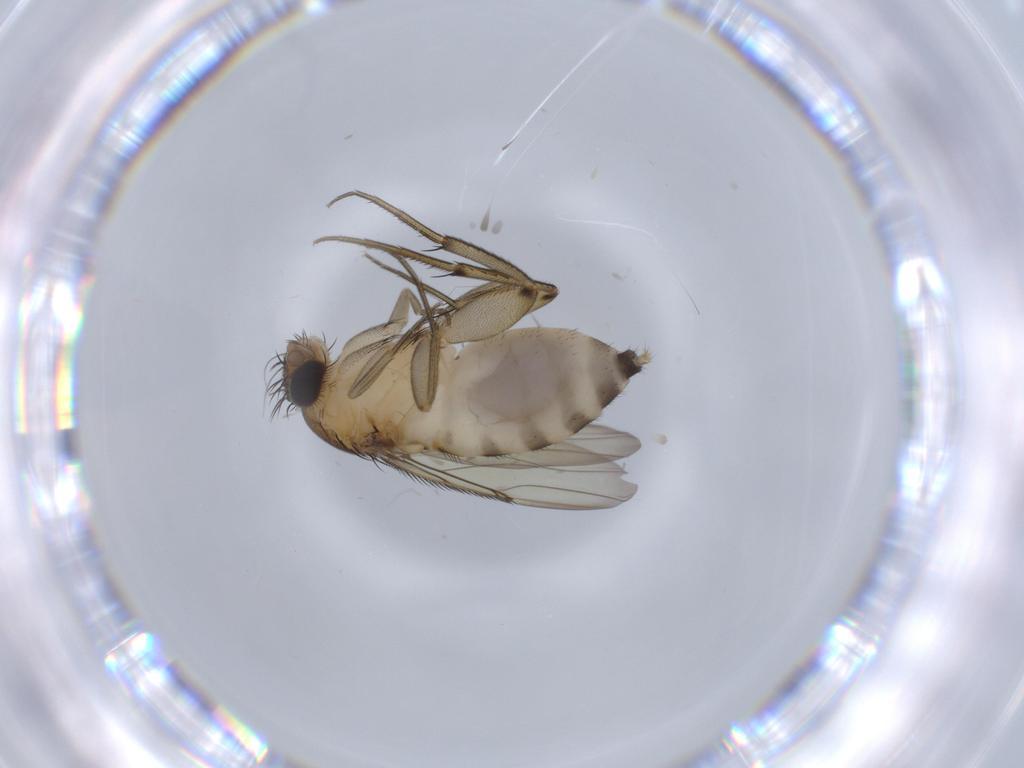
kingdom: Animalia
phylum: Arthropoda
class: Insecta
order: Diptera
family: Phoridae
